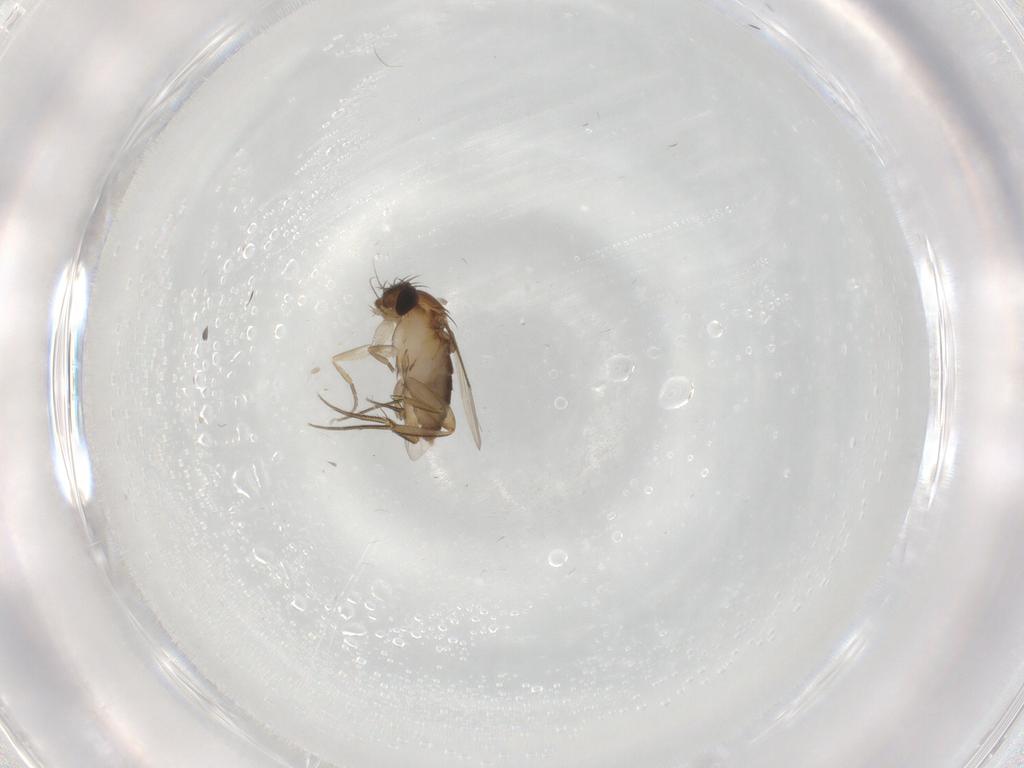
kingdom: Animalia
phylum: Arthropoda
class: Insecta
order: Diptera
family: Phoridae
